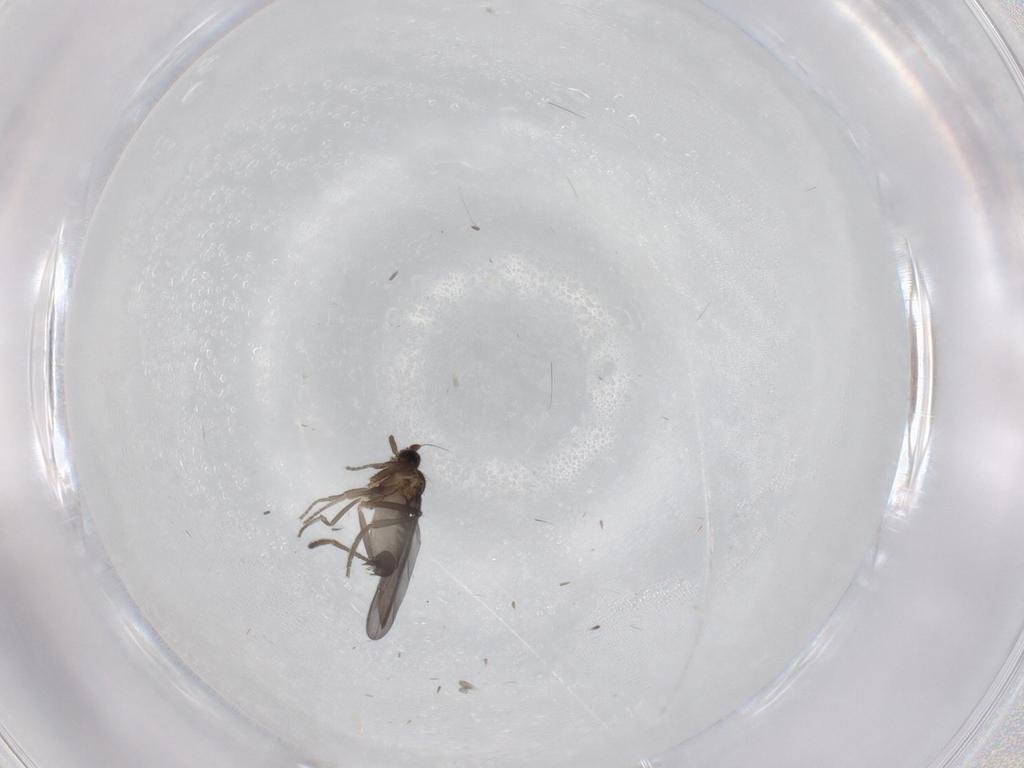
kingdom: Animalia
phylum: Arthropoda
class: Insecta
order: Diptera
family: Phoridae
